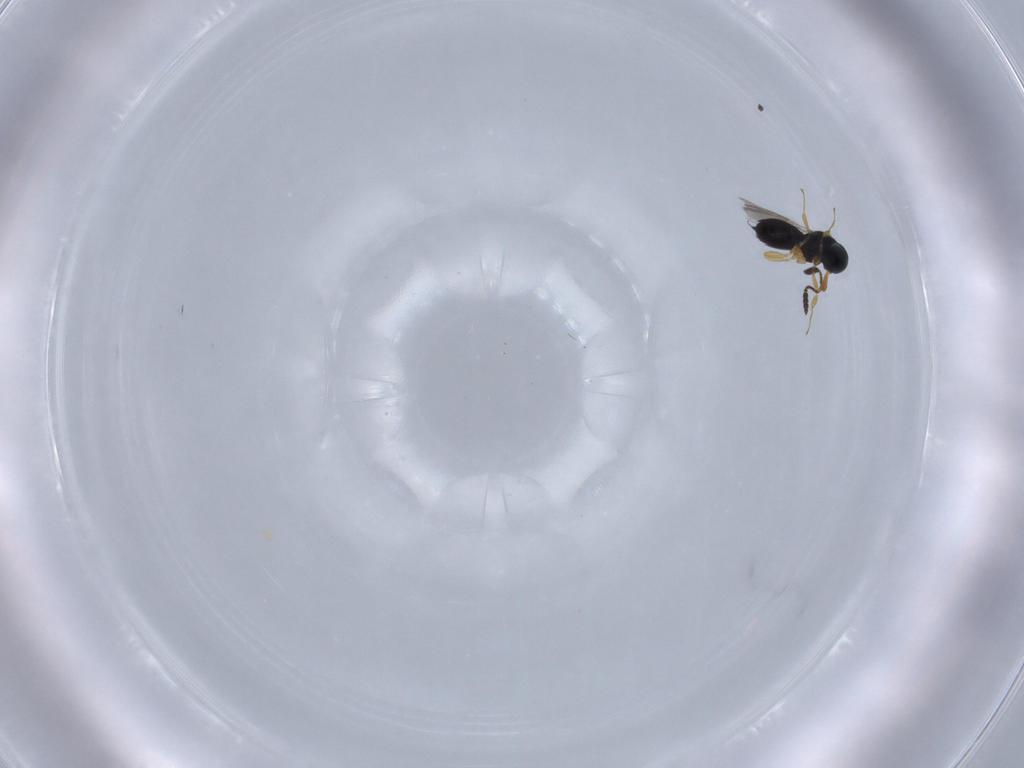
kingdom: Animalia
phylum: Arthropoda
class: Insecta
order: Hymenoptera
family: Scelionidae
